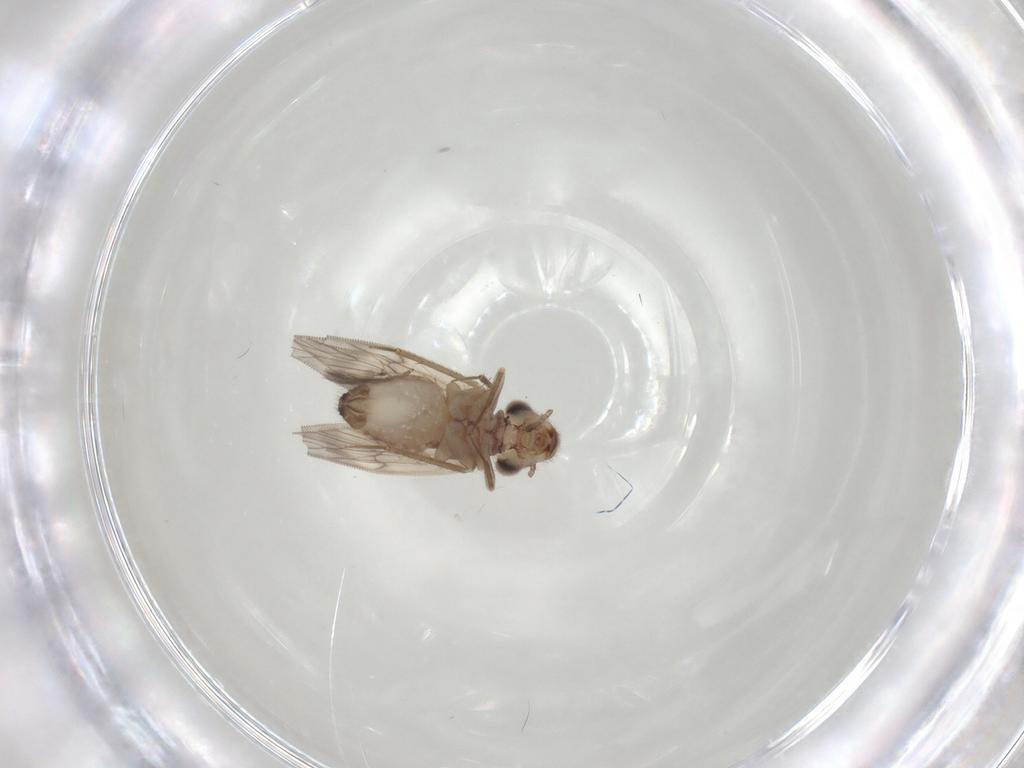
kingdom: Animalia
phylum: Arthropoda
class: Insecta
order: Psocodea
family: Lepidopsocidae
